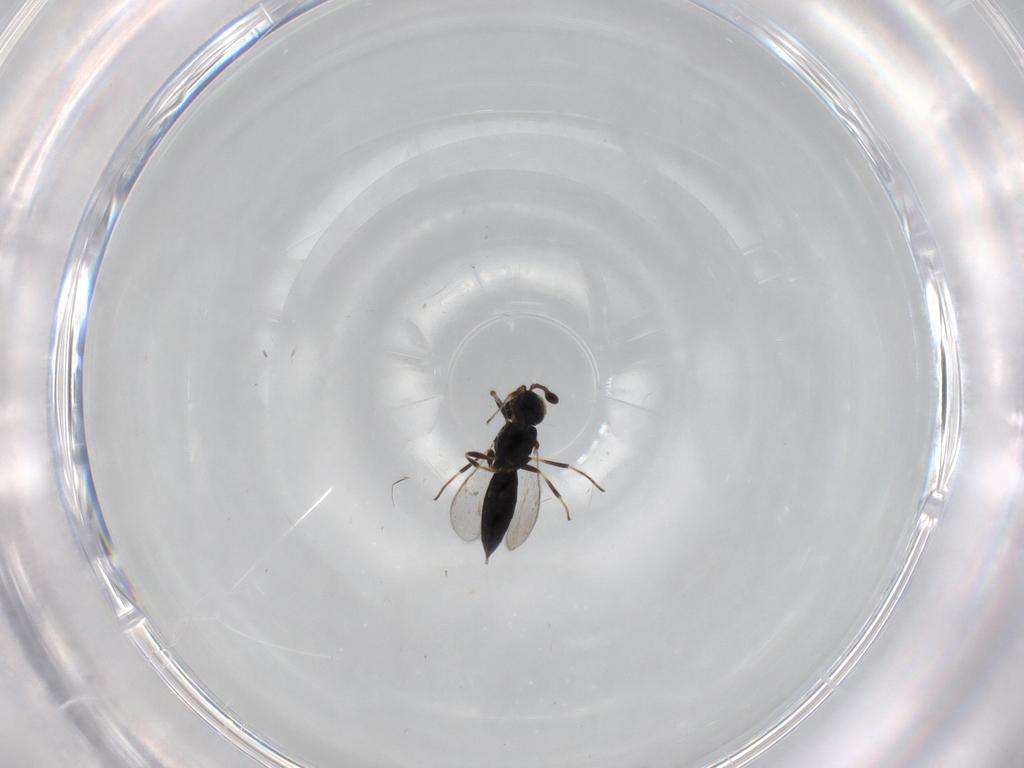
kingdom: Animalia
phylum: Arthropoda
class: Insecta
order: Hymenoptera
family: Scelionidae
